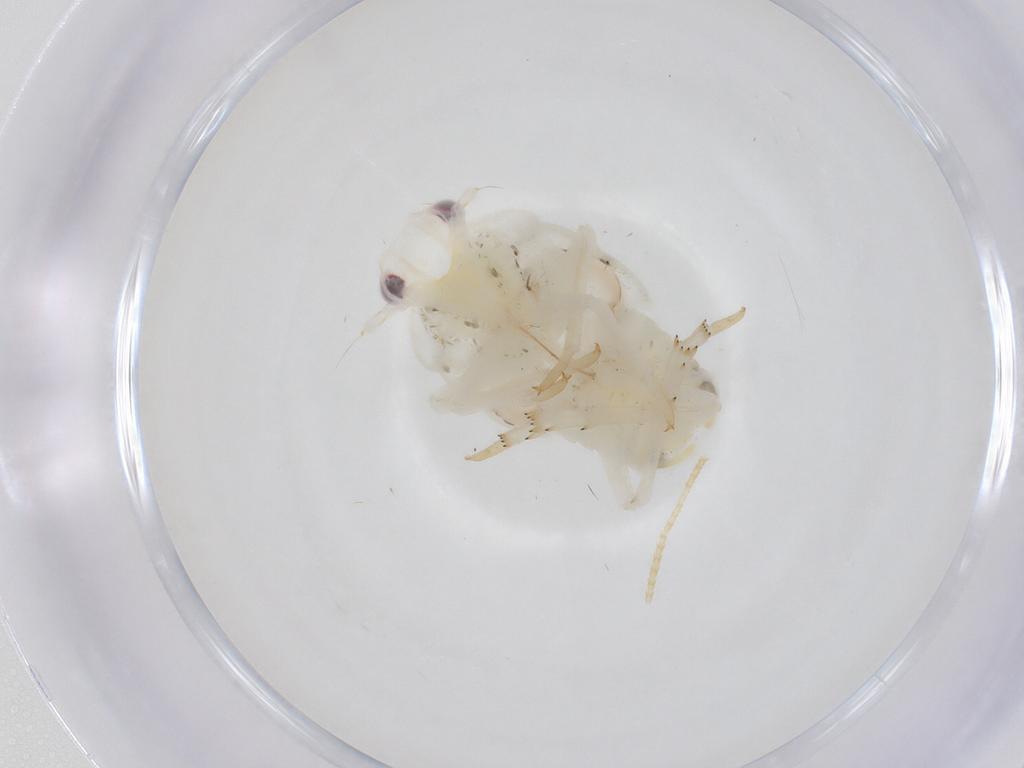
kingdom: Animalia
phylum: Arthropoda
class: Insecta
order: Hemiptera
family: Flatidae
